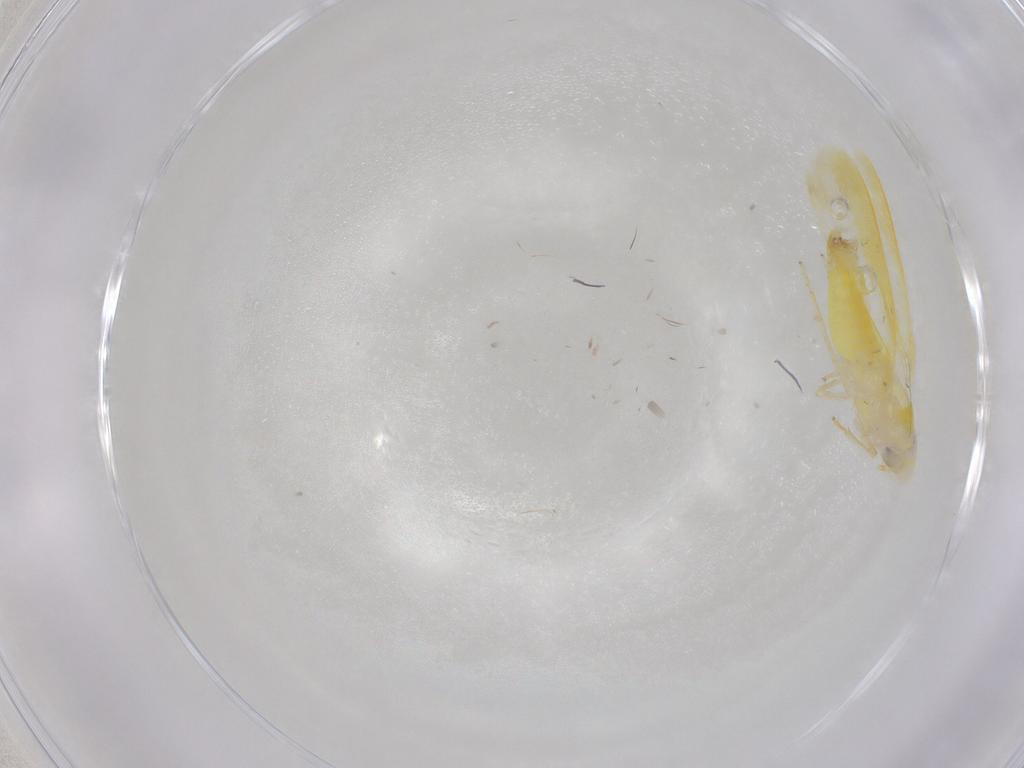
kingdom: Animalia
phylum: Arthropoda
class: Insecta
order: Hemiptera
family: Cicadellidae
